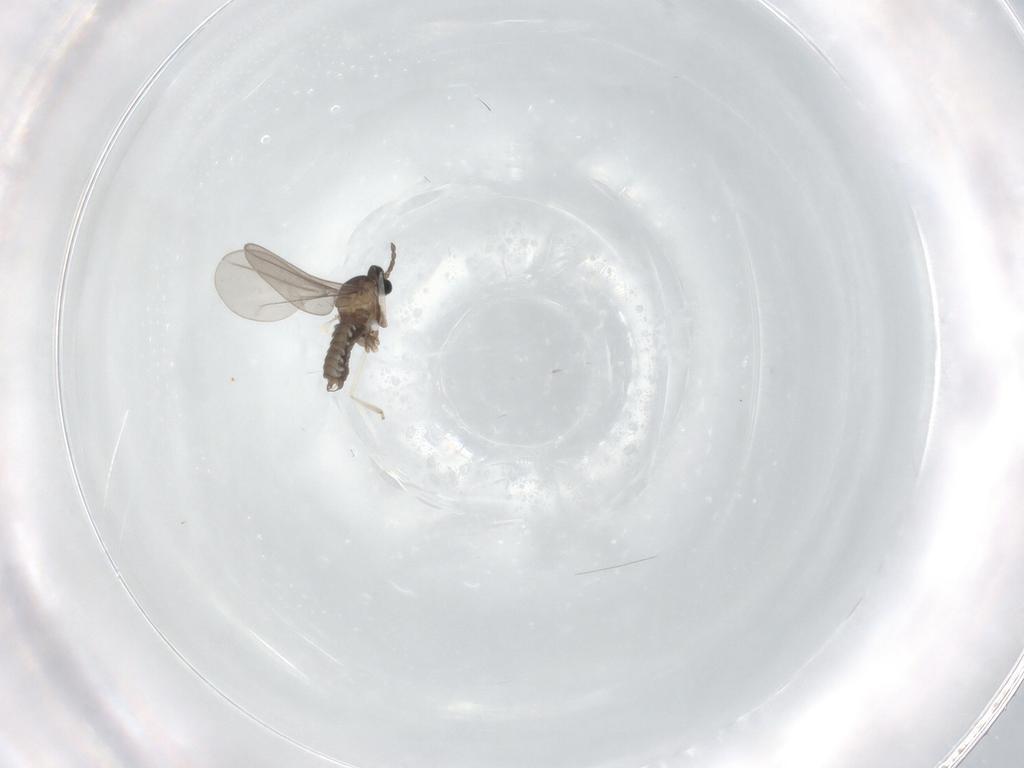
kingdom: Animalia
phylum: Arthropoda
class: Insecta
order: Diptera
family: Phoridae
